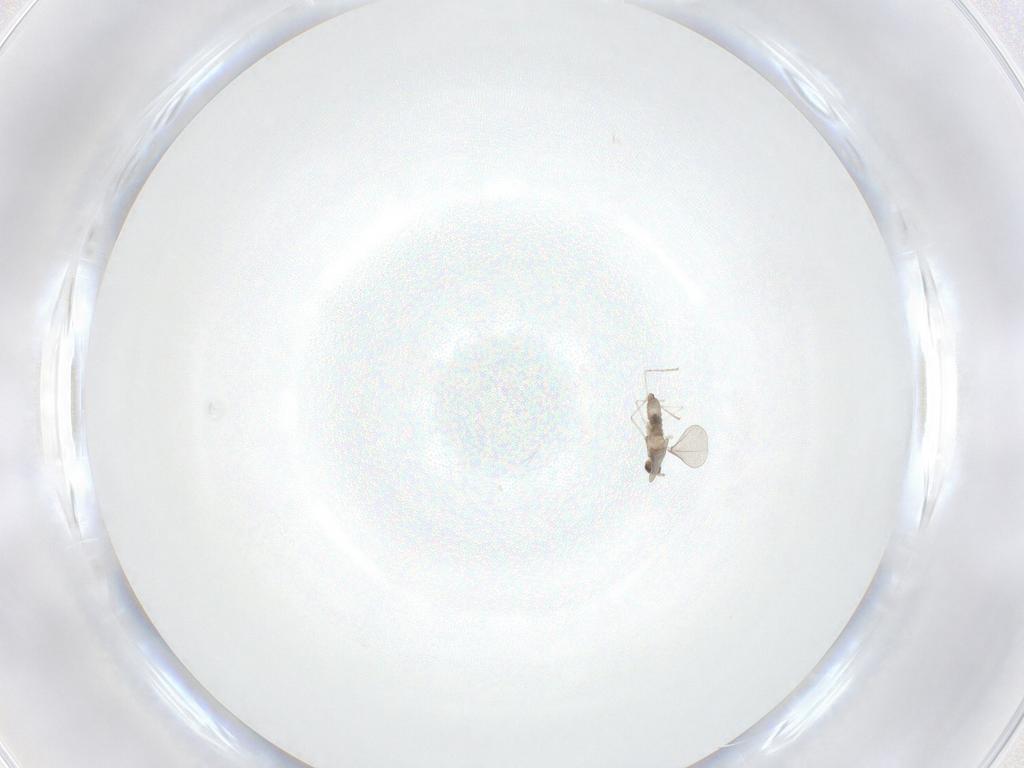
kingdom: Animalia
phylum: Arthropoda
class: Insecta
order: Diptera
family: Cecidomyiidae
